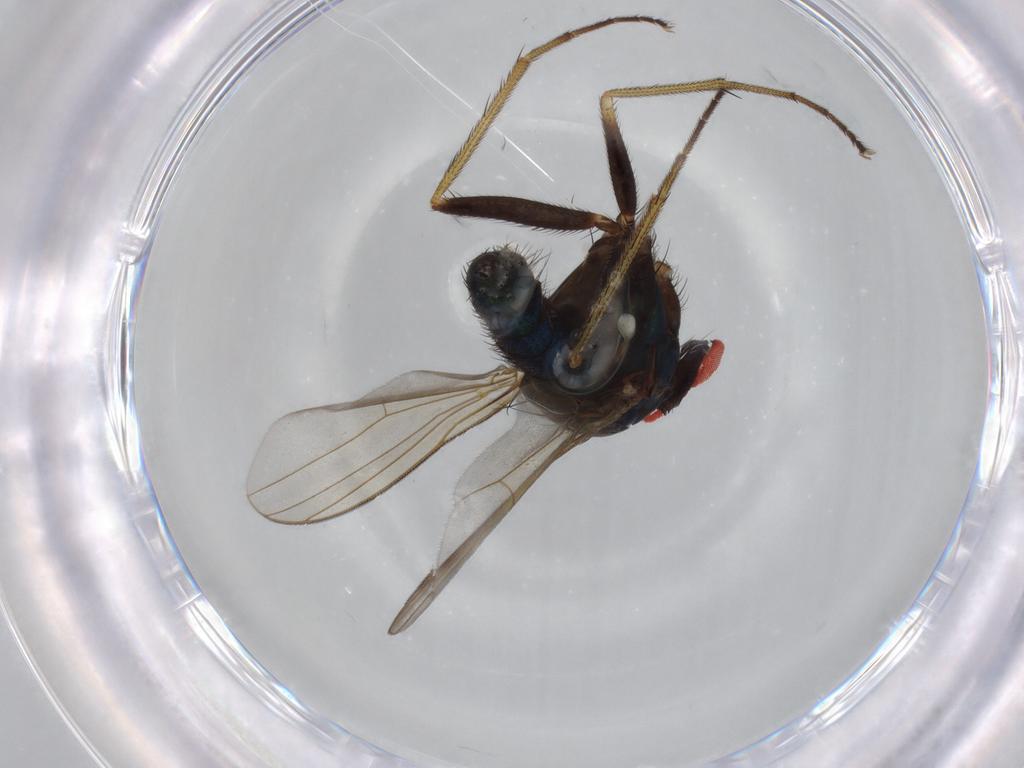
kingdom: Animalia
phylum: Arthropoda
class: Insecta
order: Diptera
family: Dolichopodidae
